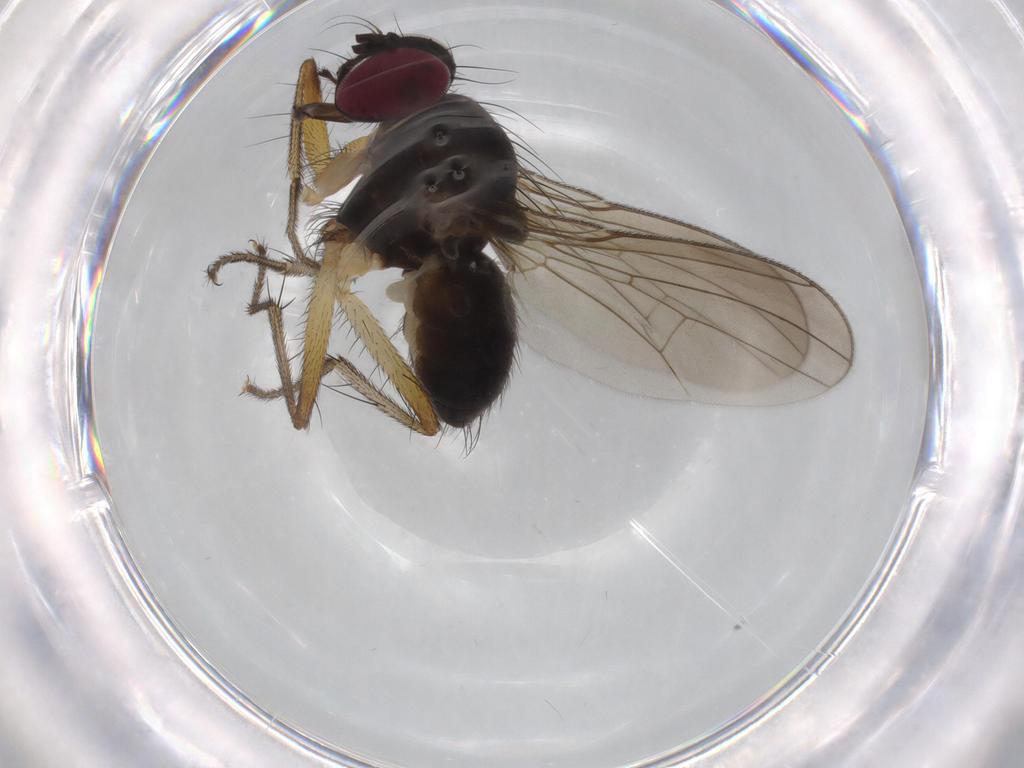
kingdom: Animalia
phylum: Arthropoda
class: Insecta
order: Diptera
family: Anthomyiidae
